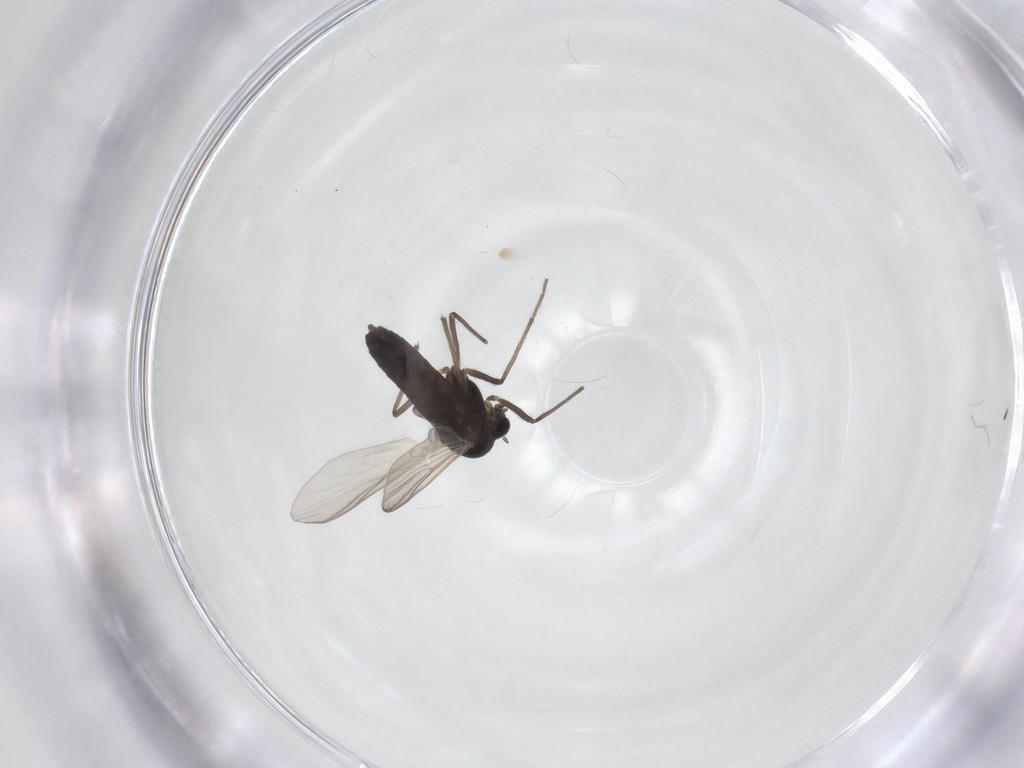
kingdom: Animalia
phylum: Arthropoda
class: Insecta
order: Diptera
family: Chironomidae
